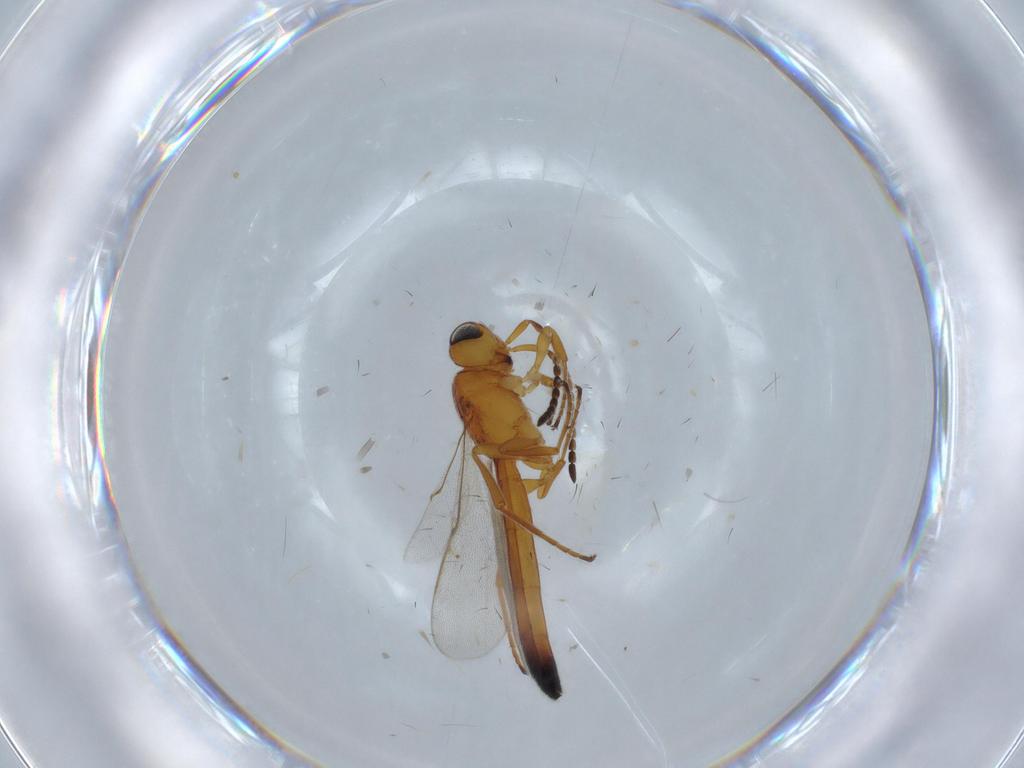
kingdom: Animalia
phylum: Arthropoda
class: Insecta
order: Hymenoptera
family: Scelionidae
